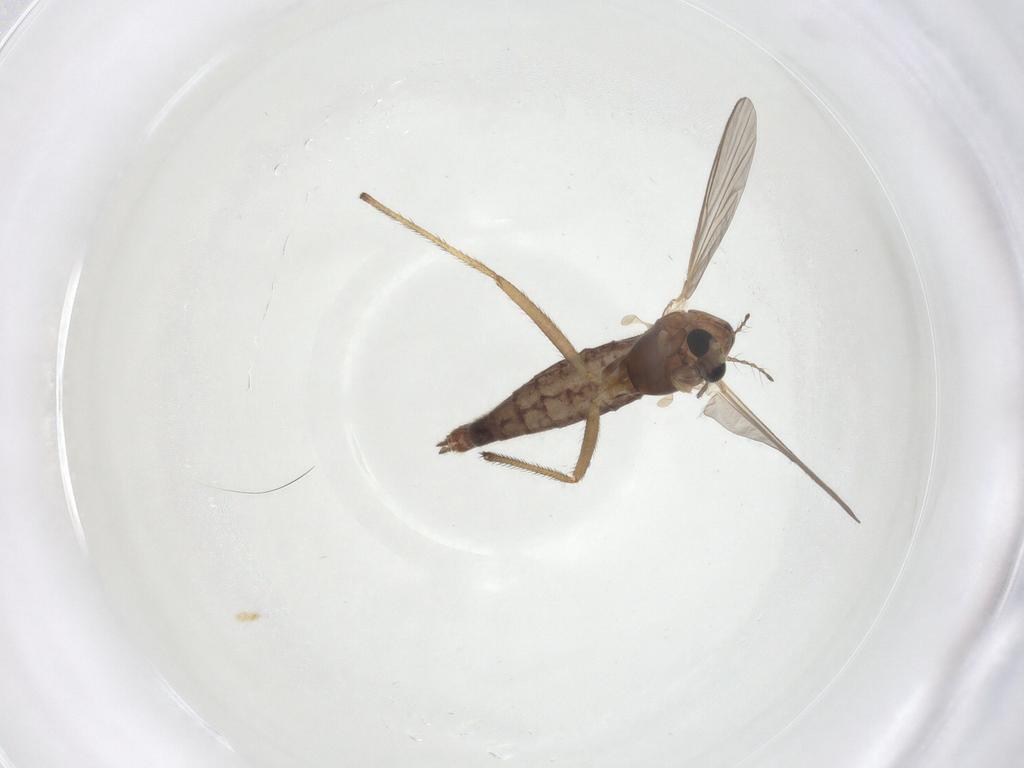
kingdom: Animalia
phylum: Arthropoda
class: Insecta
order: Diptera
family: Chironomidae
